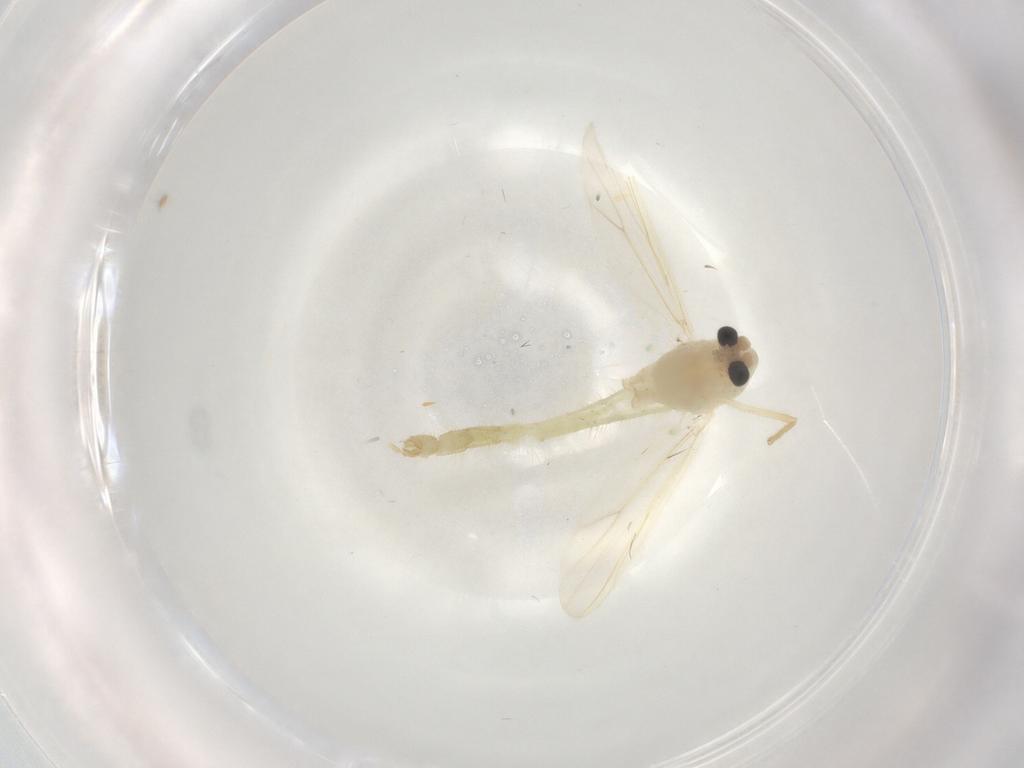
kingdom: Animalia
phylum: Arthropoda
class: Insecta
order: Diptera
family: Chironomidae
